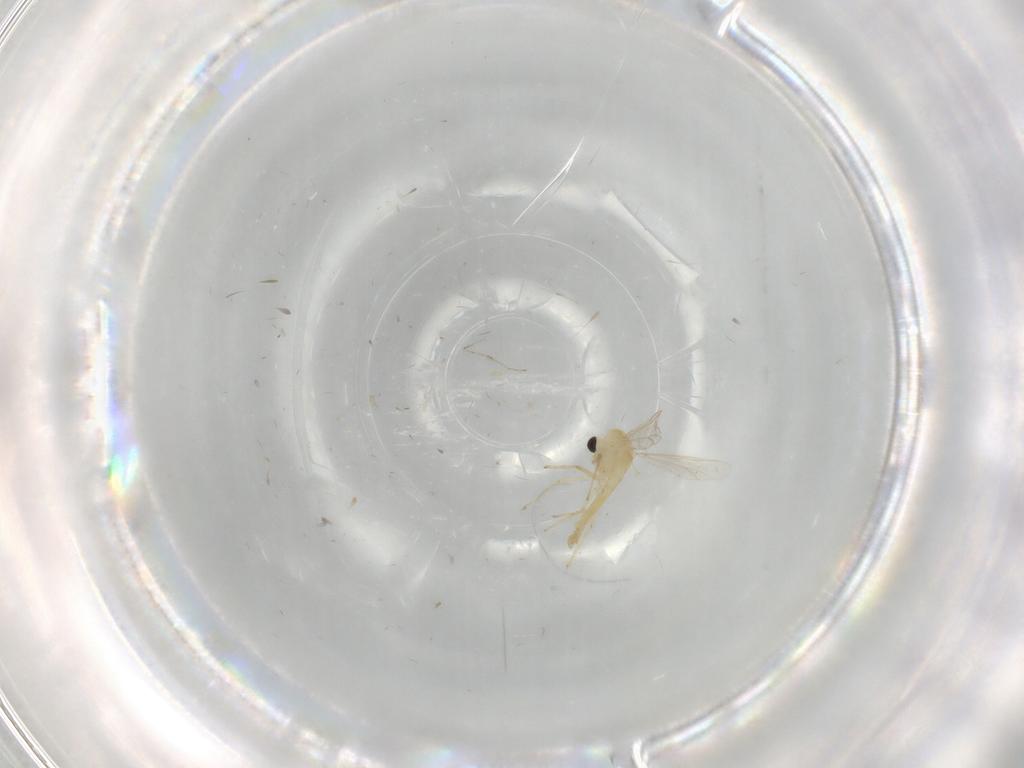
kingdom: Animalia
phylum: Arthropoda
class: Insecta
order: Diptera
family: Chironomidae
